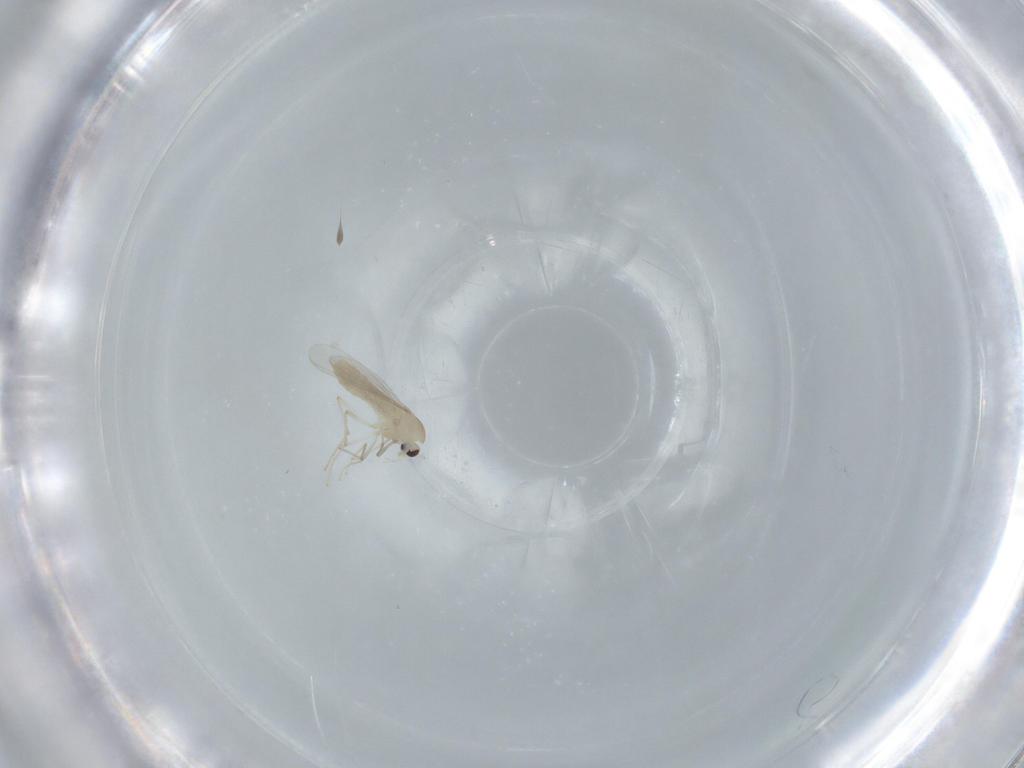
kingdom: Animalia
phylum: Arthropoda
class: Insecta
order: Diptera
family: Chironomidae
